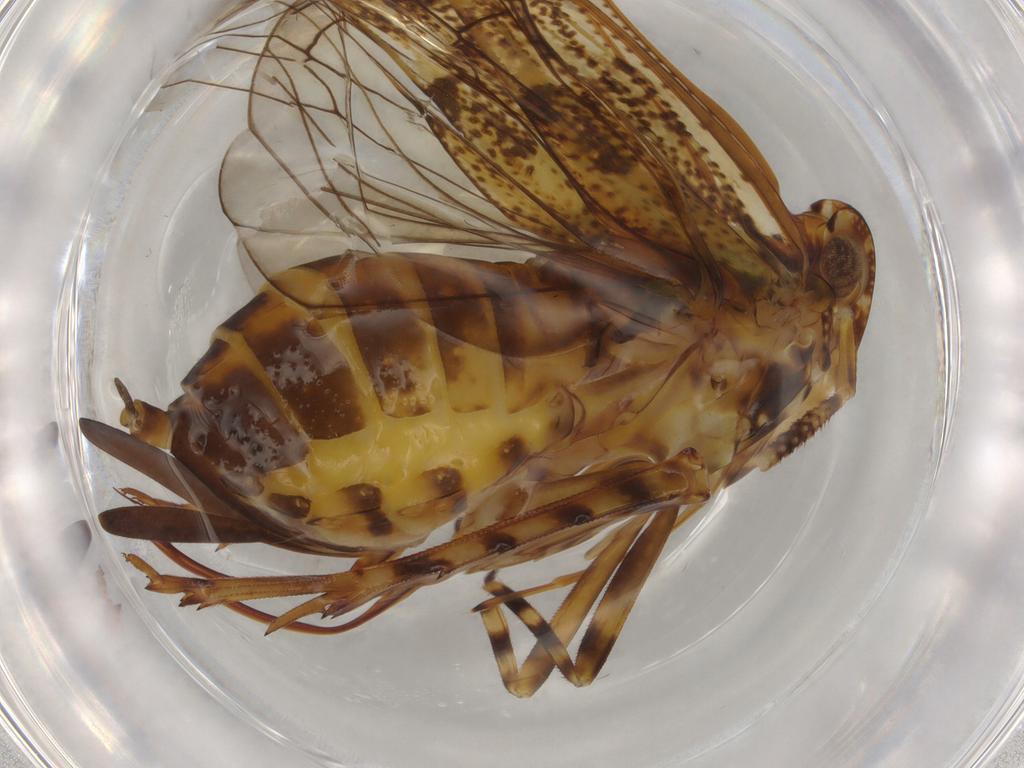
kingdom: Animalia
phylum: Arthropoda
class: Insecta
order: Hemiptera
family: Delphacidae
